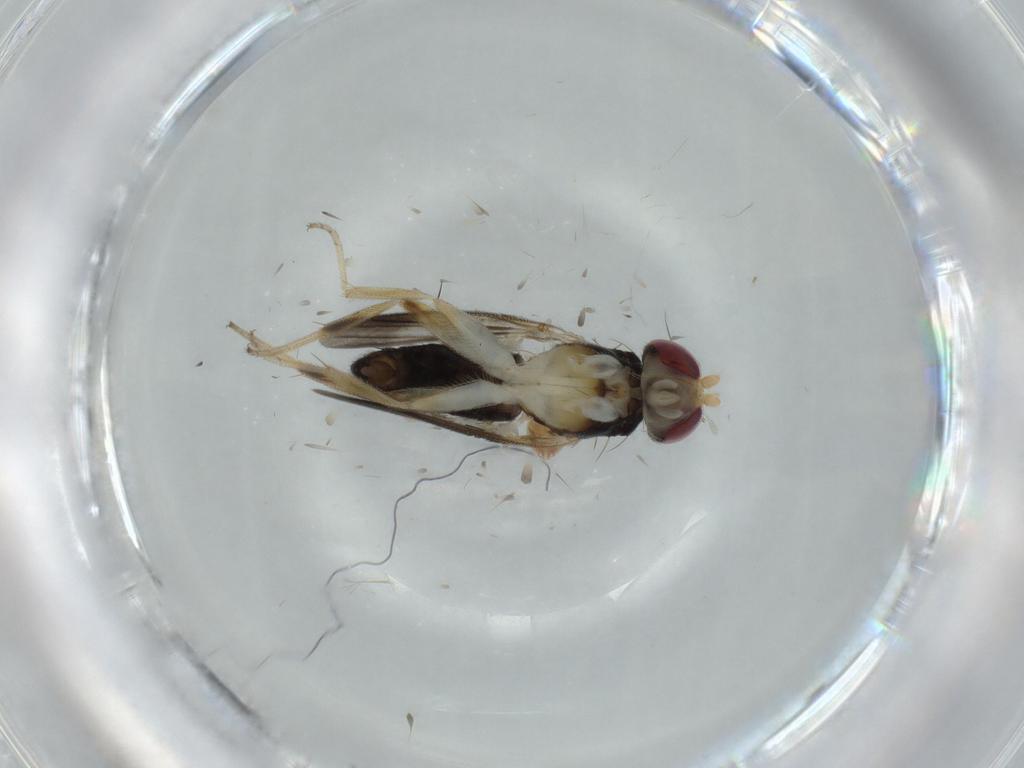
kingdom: Animalia
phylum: Arthropoda
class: Insecta
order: Diptera
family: Clusiidae
